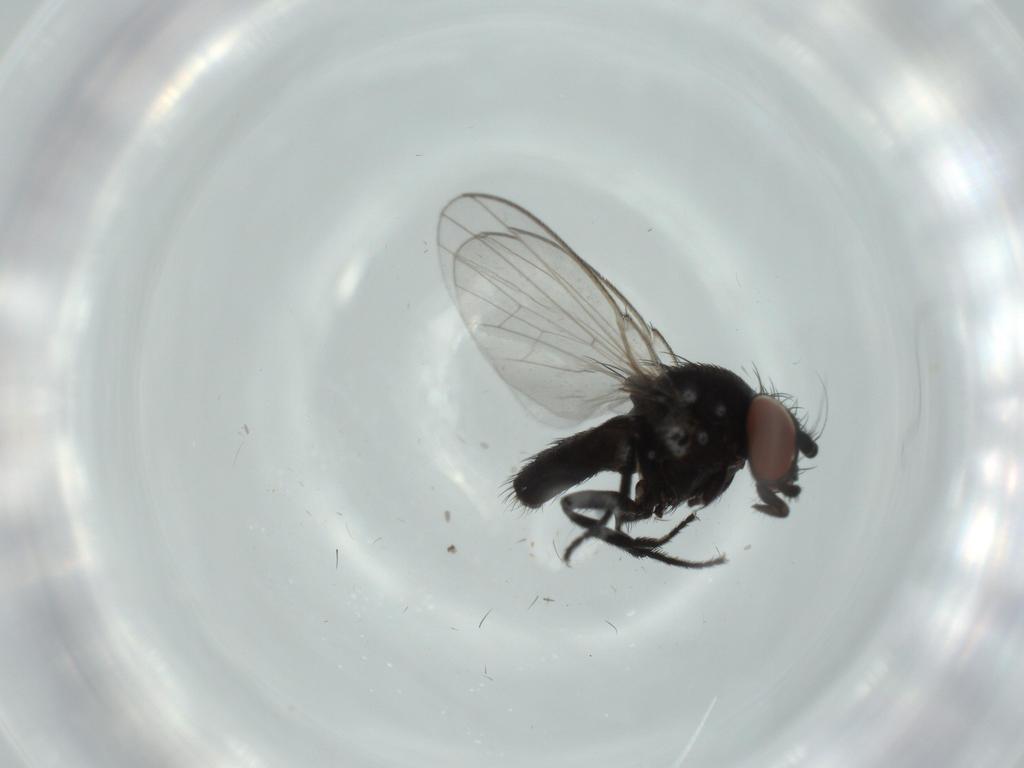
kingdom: Animalia
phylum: Arthropoda
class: Insecta
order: Diptera
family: Milichiidae
